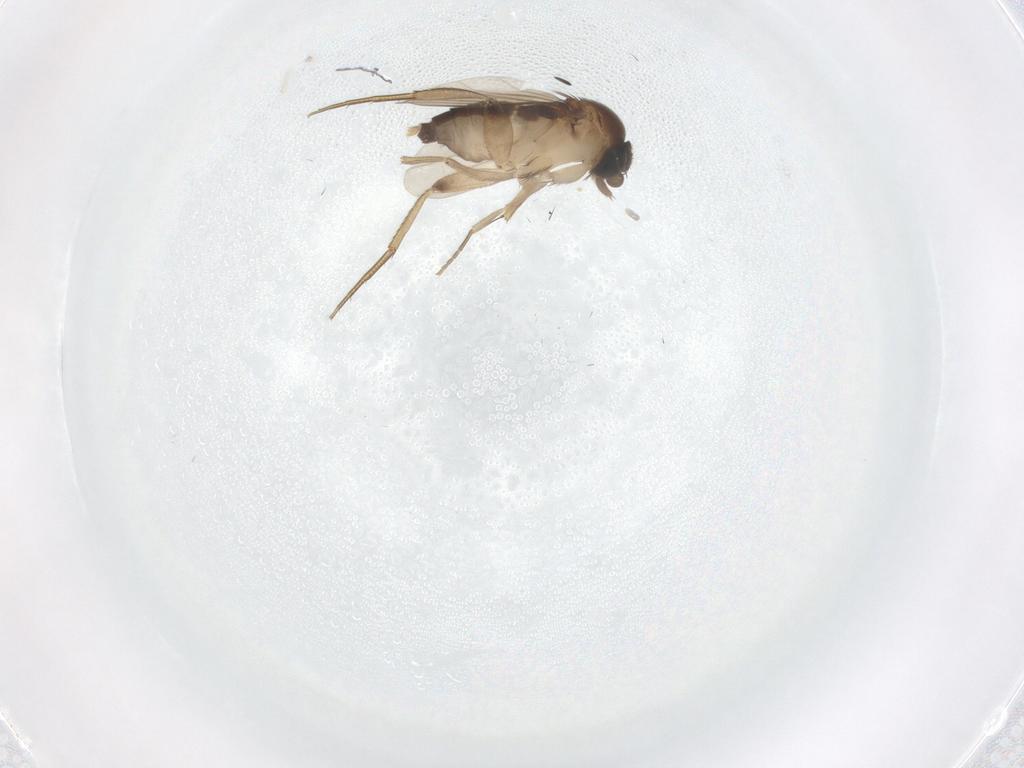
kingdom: Animalia
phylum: Arthropoda
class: Insecta
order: Diptera
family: Phoridae
